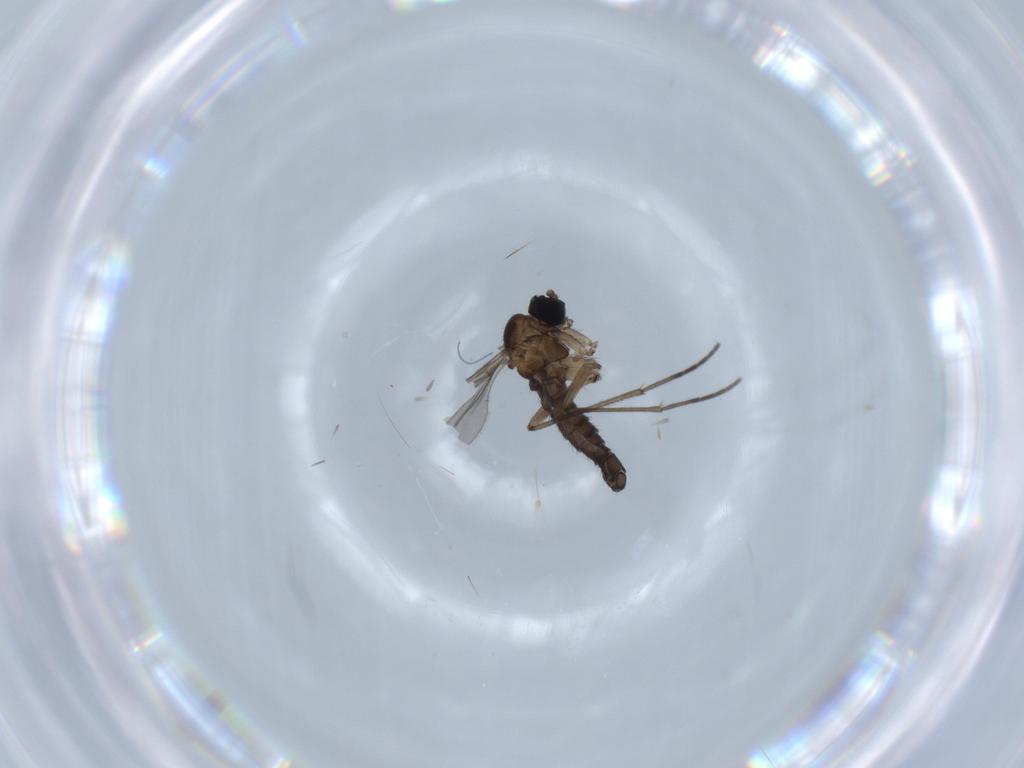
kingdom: Animalia
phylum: Arthropoda
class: Insecta
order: Diptera
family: Sciaridae
